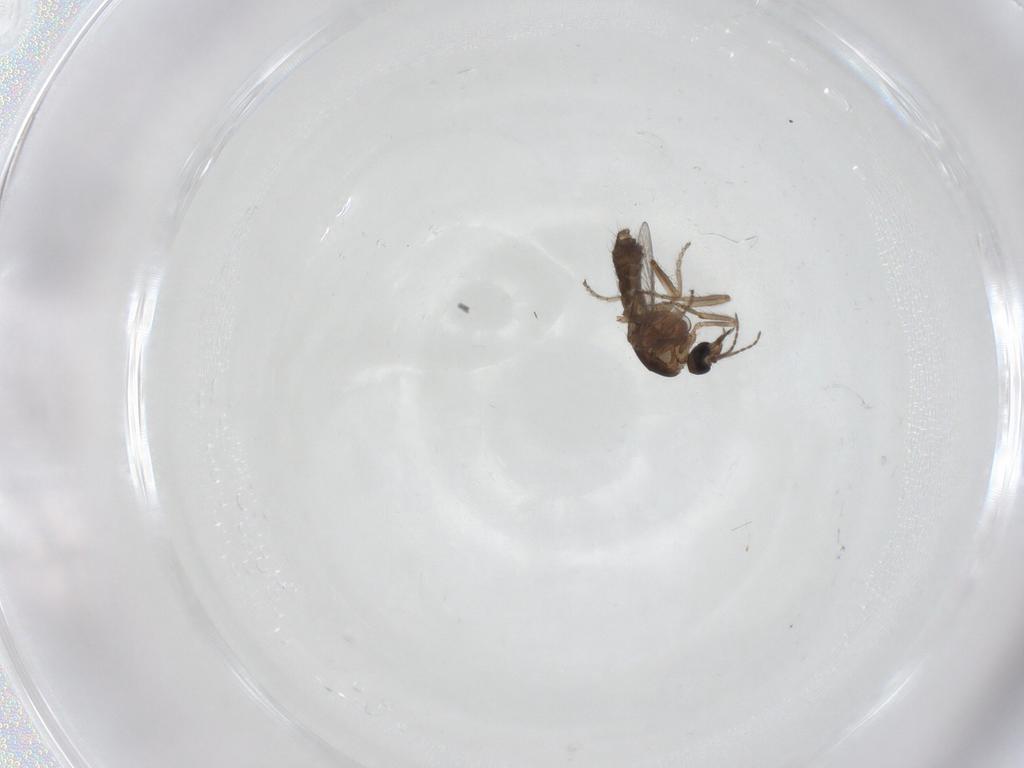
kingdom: Animalia
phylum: Arthropoda
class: Insecta
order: Diptera
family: Ceratopogonidae
